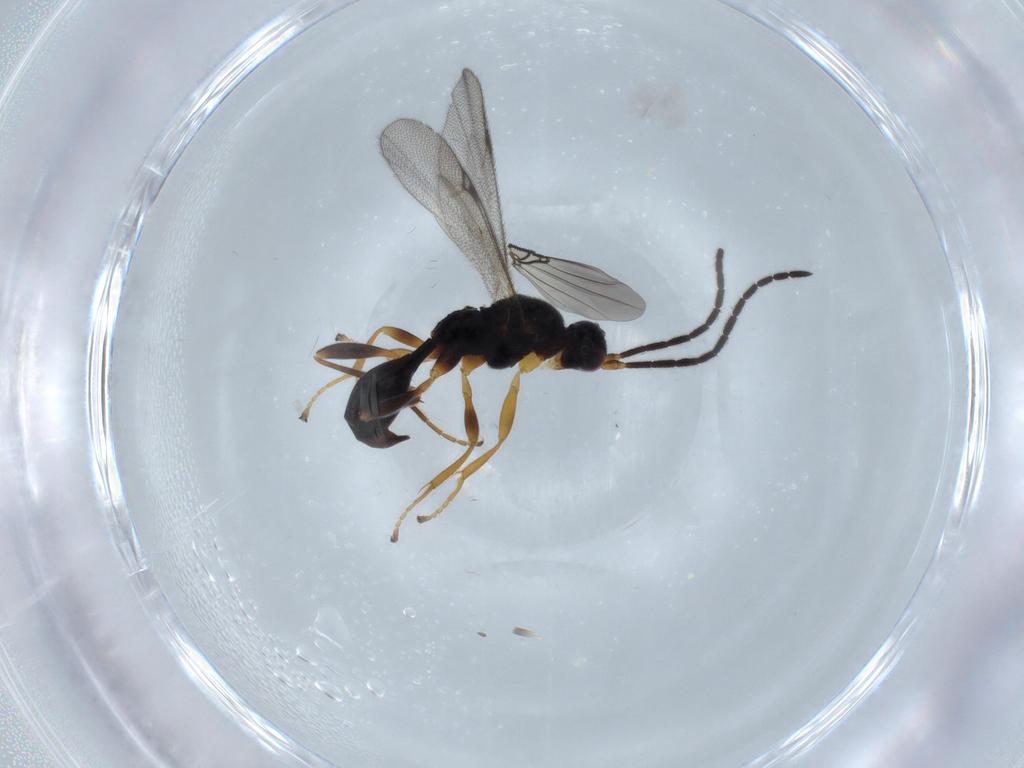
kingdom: Animalia
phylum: Arthropoda
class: Insecta
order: Hymenoptera
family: Proctotrupidae
